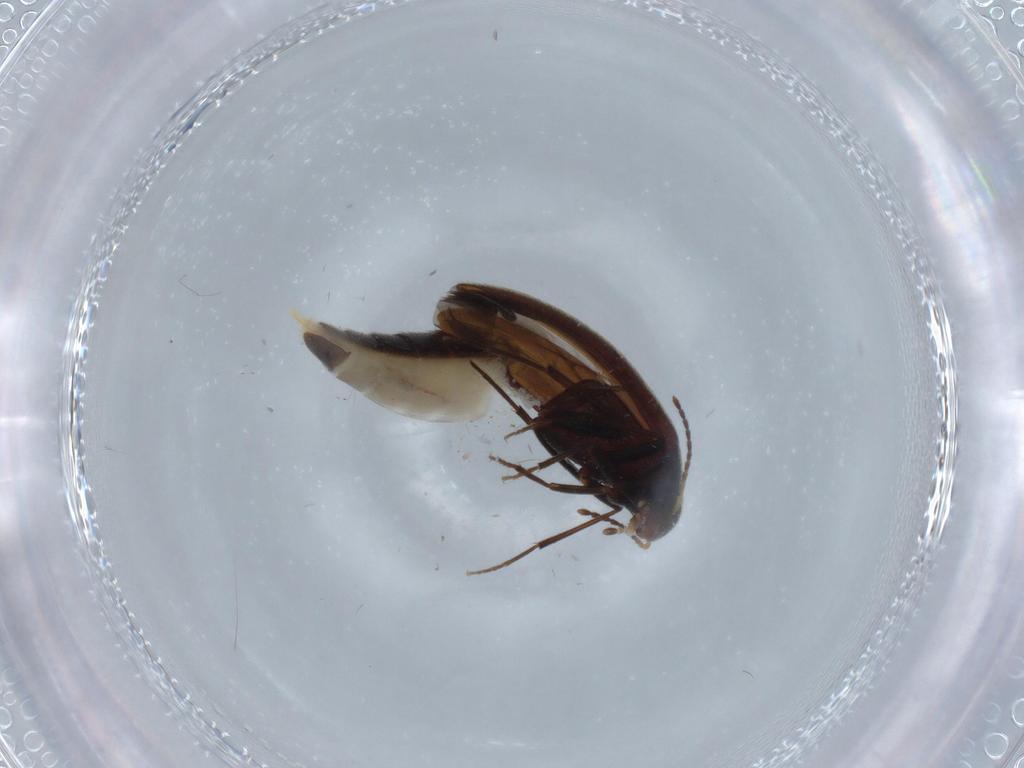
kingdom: Animalia
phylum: Arthropoda
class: Insecta
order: Coleoptera
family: Melandryidae
